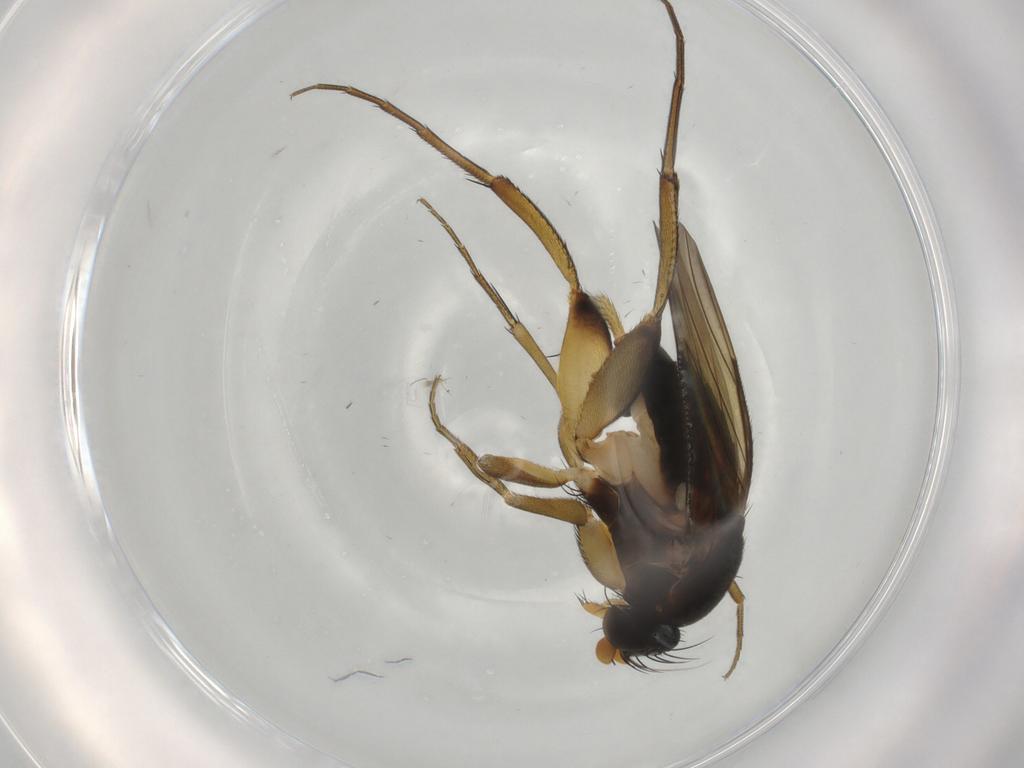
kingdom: Animalia
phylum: Arthropoda
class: Insecta
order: Diptera
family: Phoridae
